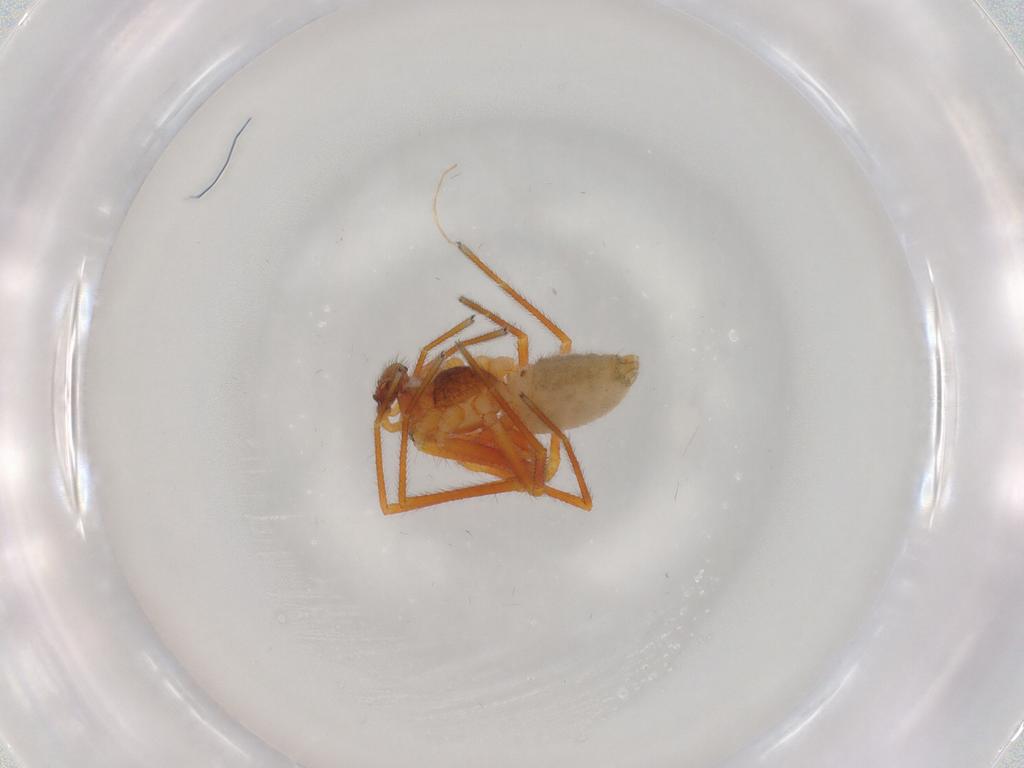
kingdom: Animalia
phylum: Arthropoda
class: Arachnida
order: Araneae
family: Linyphiidae
